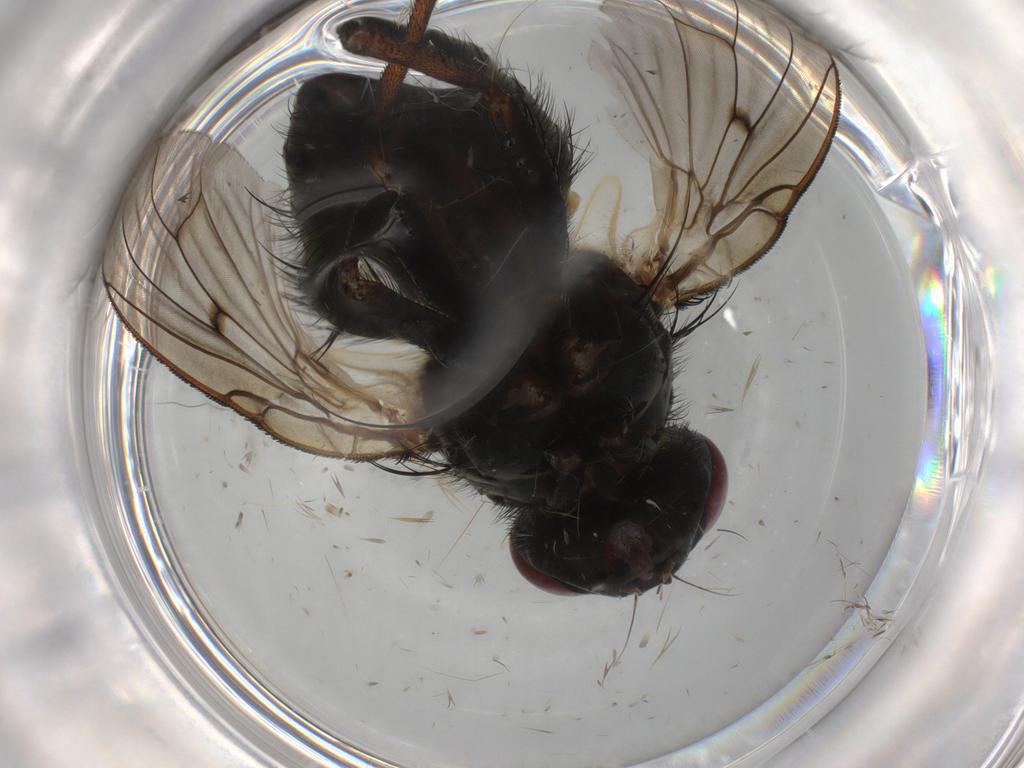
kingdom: Animalia
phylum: Arthropoda
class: Insecta
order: Diptera
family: Muscidae
